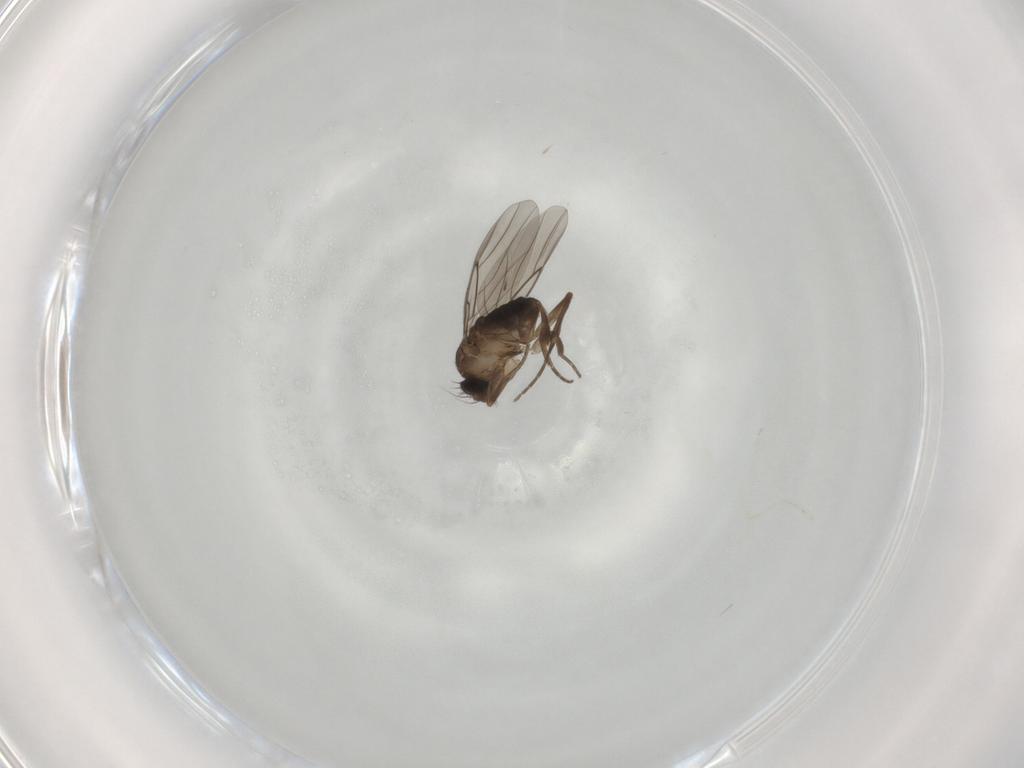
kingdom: Animalia
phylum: Arthropoda
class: Insecta
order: Diptera
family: Phoridae
